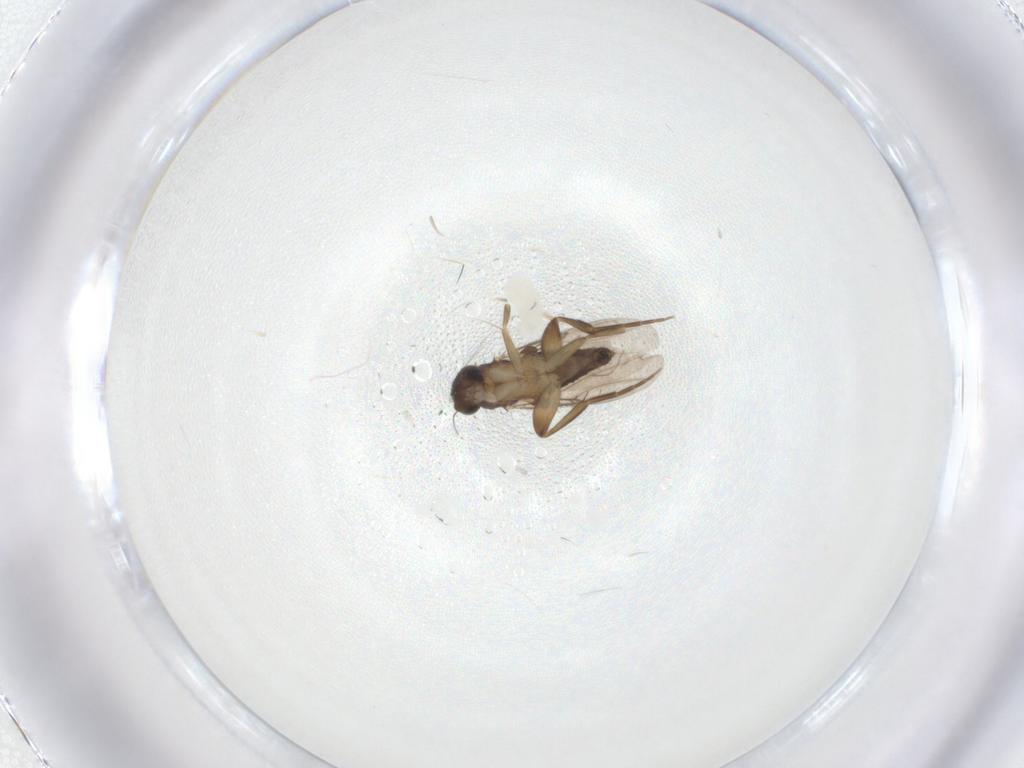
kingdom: Animalia
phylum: Arthropoda
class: Insecta
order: Diptera
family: Phoridae
